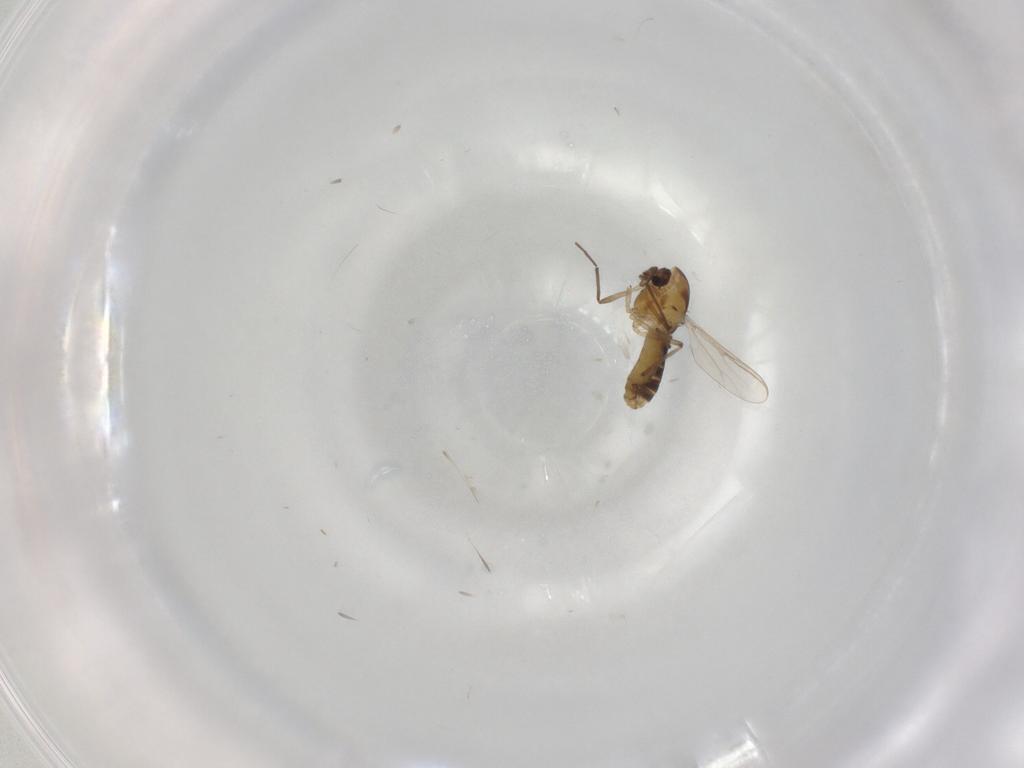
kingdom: Animalia
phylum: Arthropoda
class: Insecta
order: Diptera
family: Chironomidae
